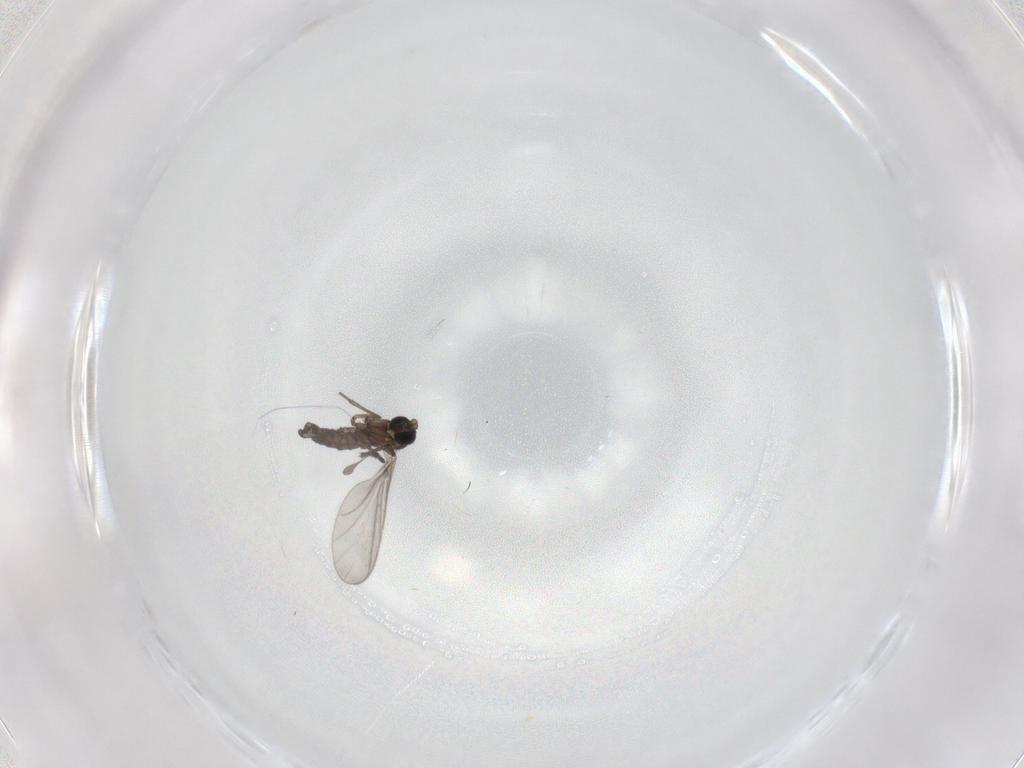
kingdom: Animalia
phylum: Arthropoda
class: Insecta
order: Diptera
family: Sciaridae
